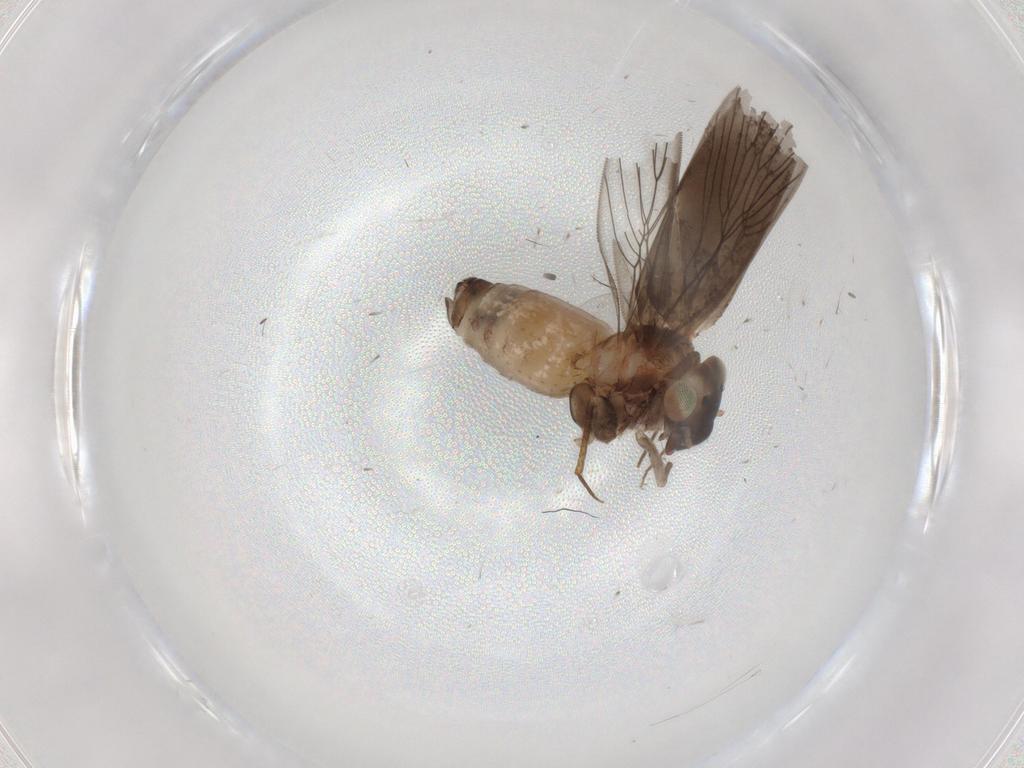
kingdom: Animalia
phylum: Arthropoda
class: Insecta
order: Psocodea
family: Lepidopsocidae
